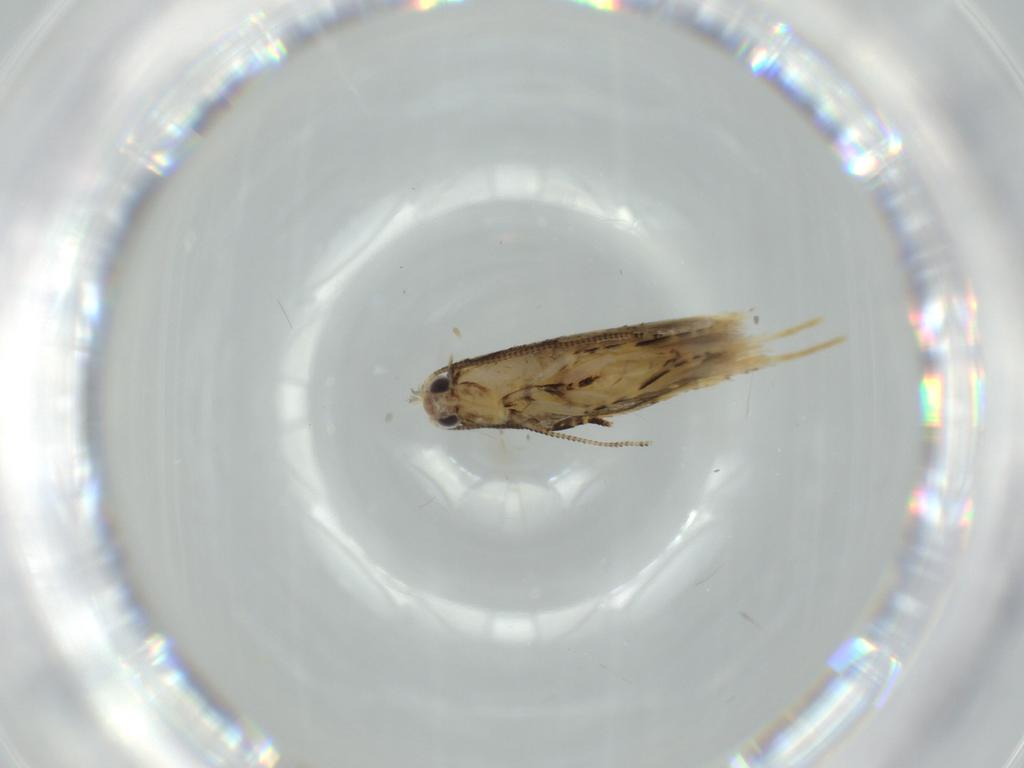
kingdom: Animalia
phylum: Arthropoda
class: Insecta
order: Lepidoptera
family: Tineidae
